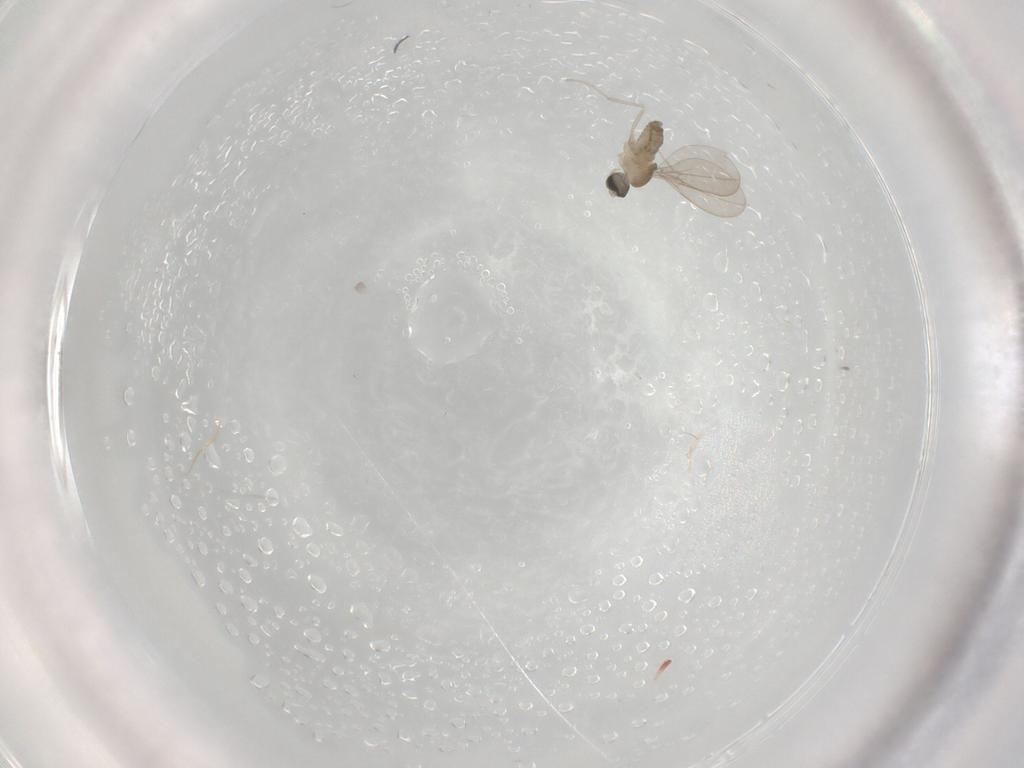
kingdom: Animalia
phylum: Arthropoda
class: Insecta
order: Diptera
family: Cecidomyiidae
